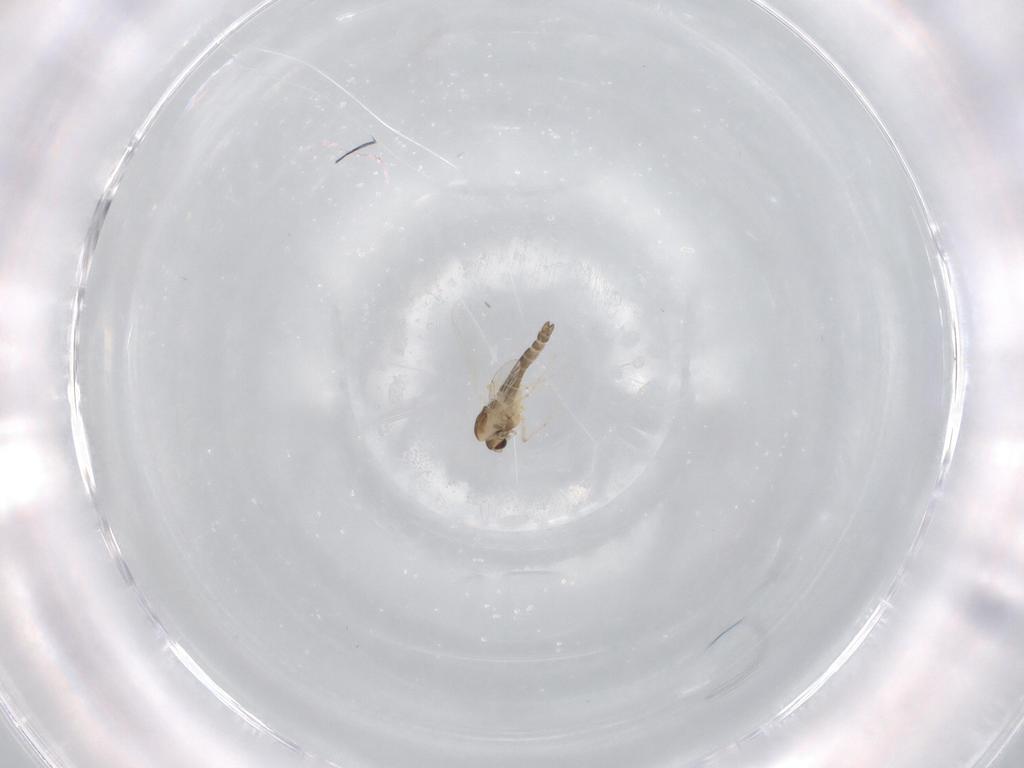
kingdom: Animalia
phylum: Arthropoda
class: Insecta
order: Diptera
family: Chironomidae
